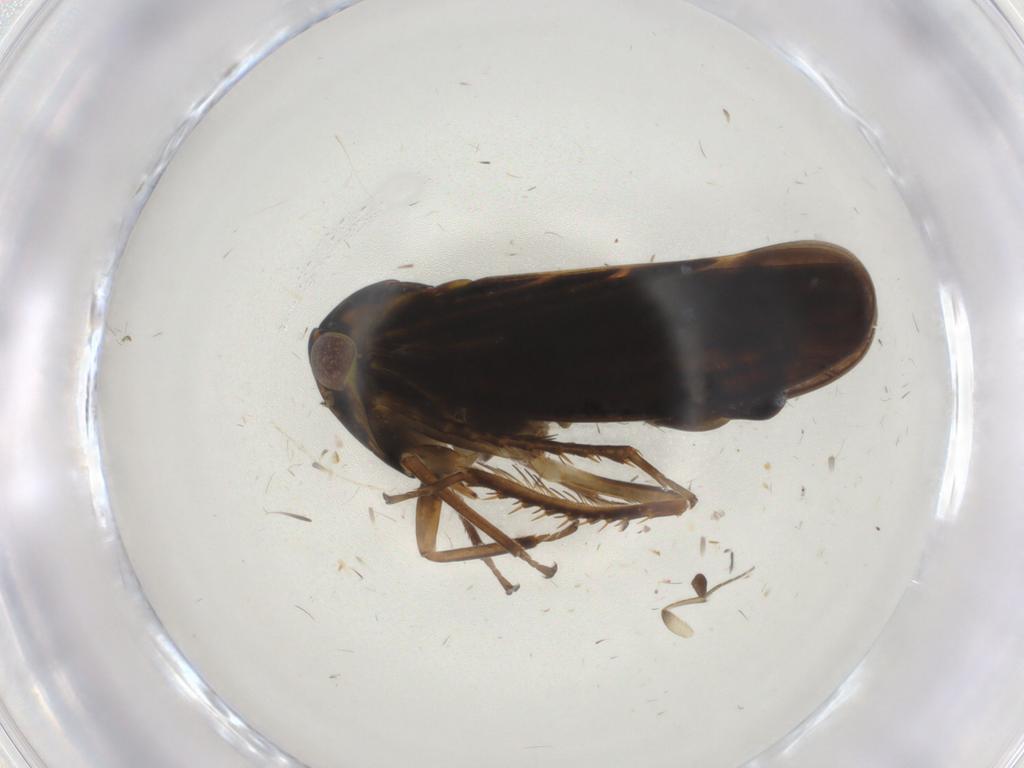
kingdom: Animalia
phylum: Arthropoda
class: Insecta
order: Hemiptera
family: Cicadellidae
